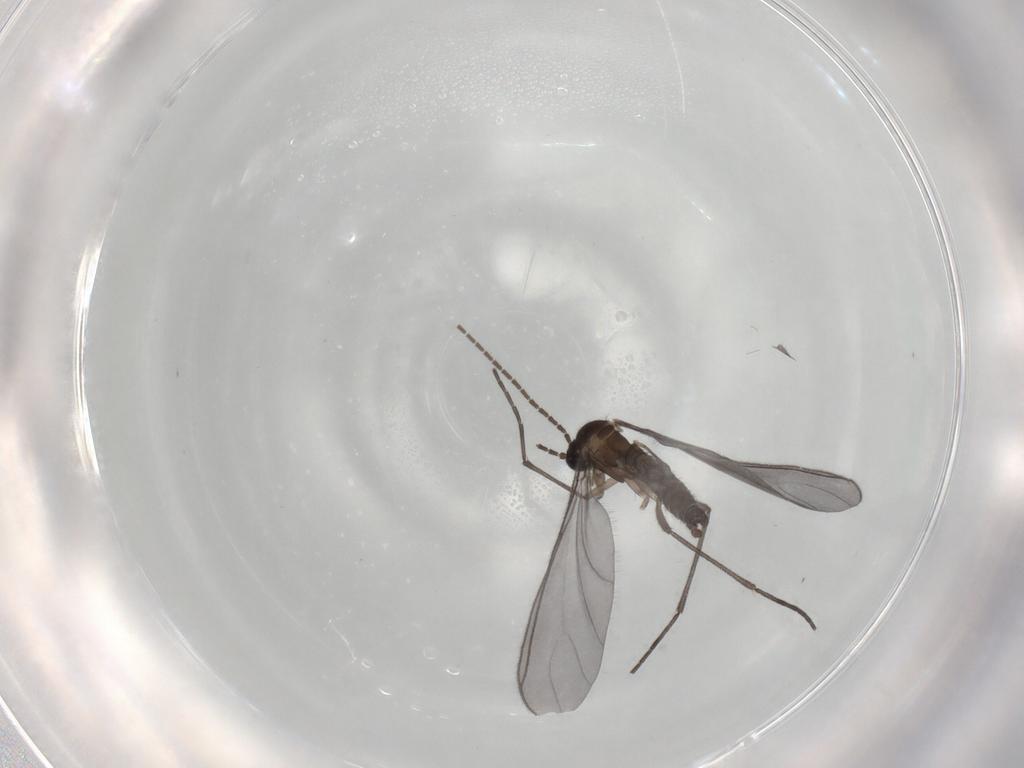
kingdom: Animalia
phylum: Arthropoda
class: Insecta
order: Diptera
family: Sciaridae
